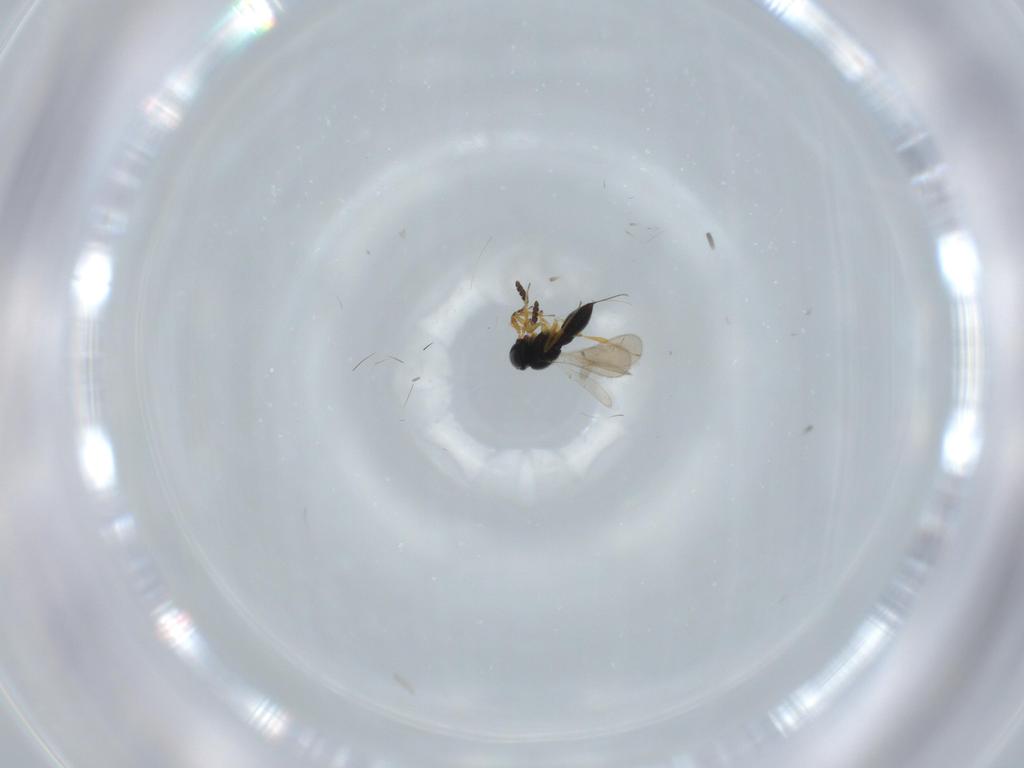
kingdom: Animalia
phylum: Arthropoda
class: Insecta
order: Hymenoptera
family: Scelionidae
